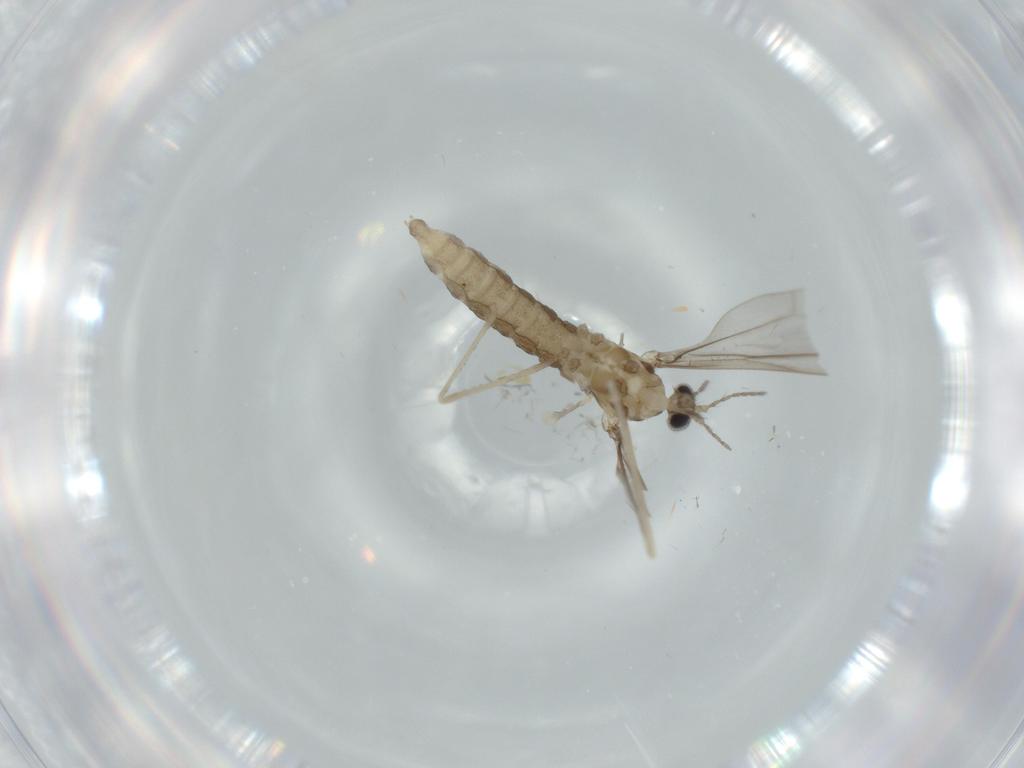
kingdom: Animalia
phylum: Arthropoda
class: Insecta
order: Diptera
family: Cecidomyiidae
